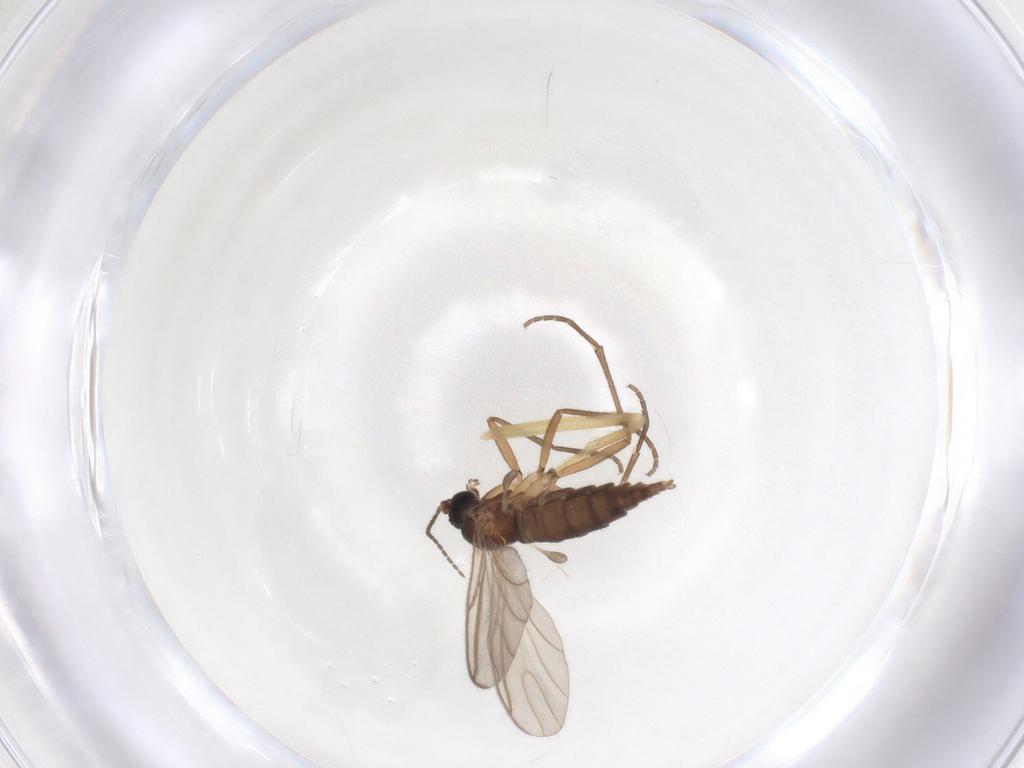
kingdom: Animalia
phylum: Arthropoda
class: Insecta
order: Diptera
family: Sciaridae
